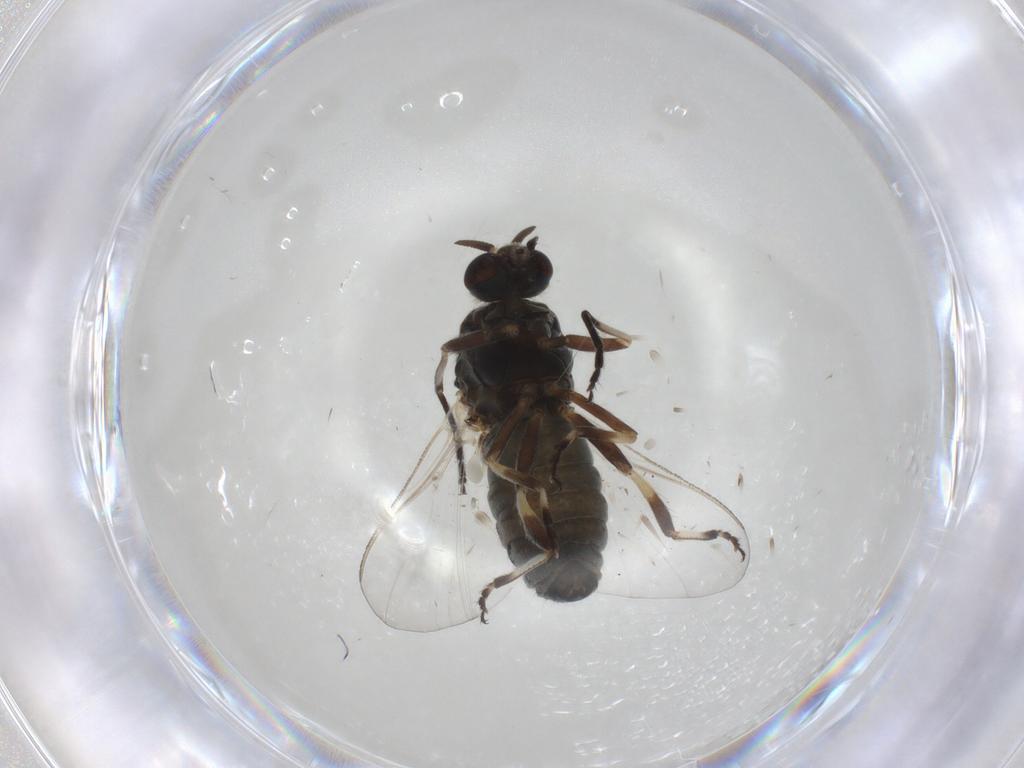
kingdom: Animalia
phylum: Arthropoda
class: Insecta
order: Diptera
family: Simuliidae
